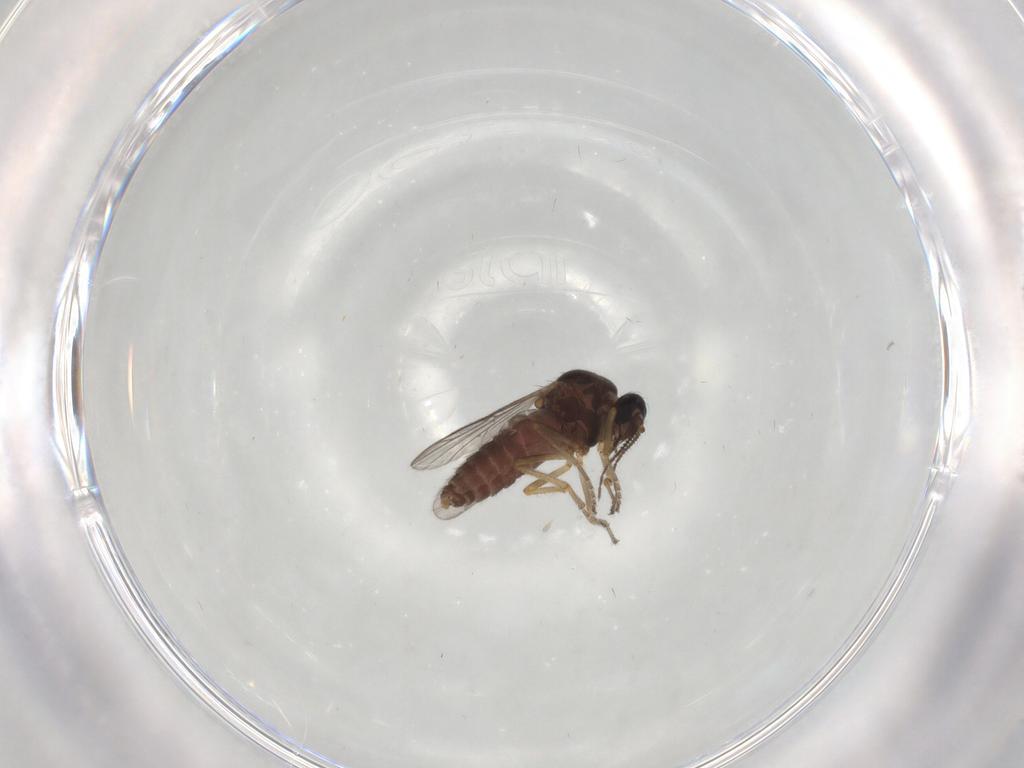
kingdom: Animalia
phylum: Arthropoda
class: Insecta
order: Diptera
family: Ceratopogonidae
